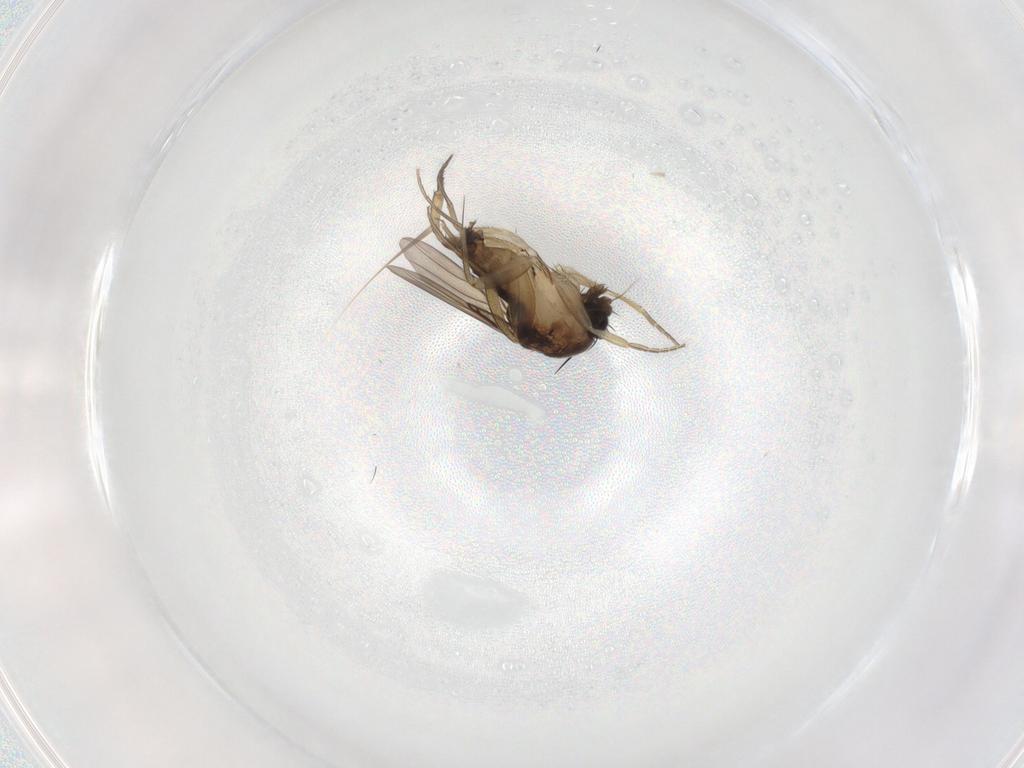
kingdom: Animalia
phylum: Arthropoda
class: Insecta
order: Diptera
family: Phoridae
